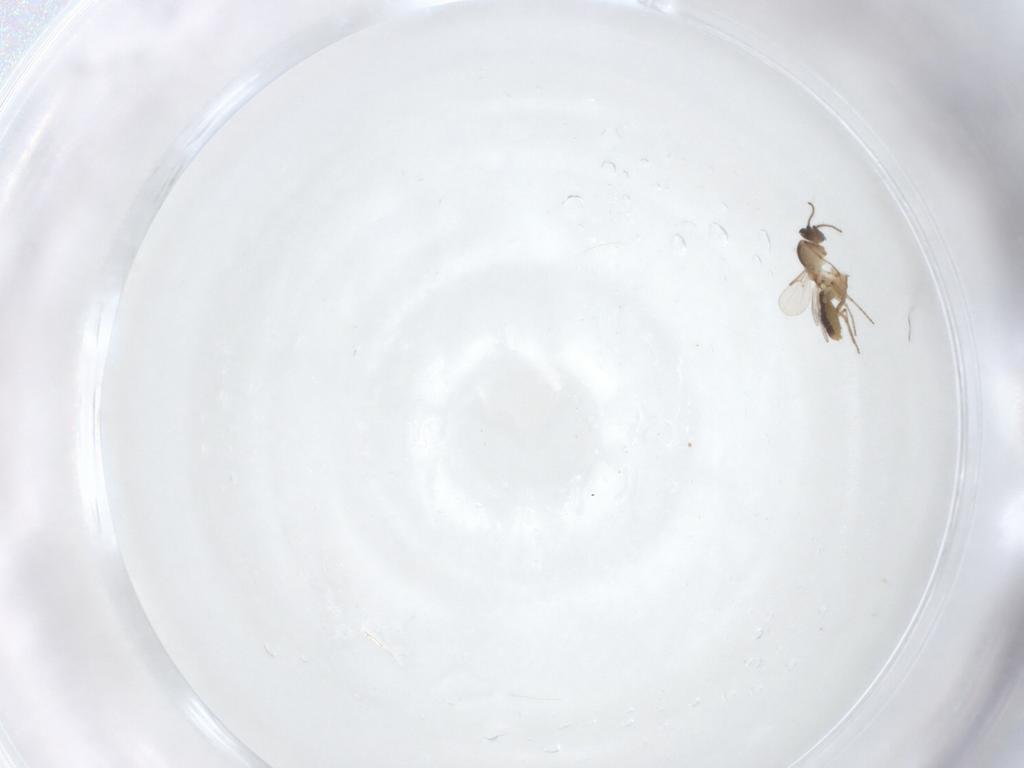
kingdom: Animalia
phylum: Arthropoda
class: Insecta
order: Diptera
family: Ceratopogonidae
